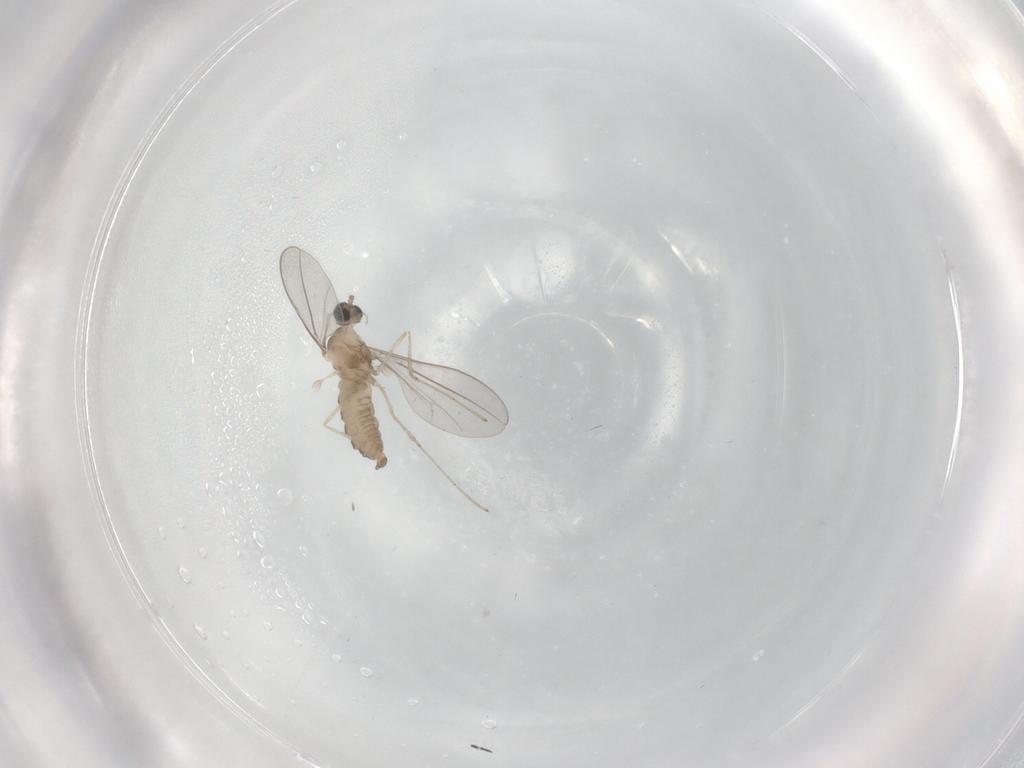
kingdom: Animalia
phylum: Arthropoda
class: Insecta
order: Diptera
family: Cecidomyiidae
